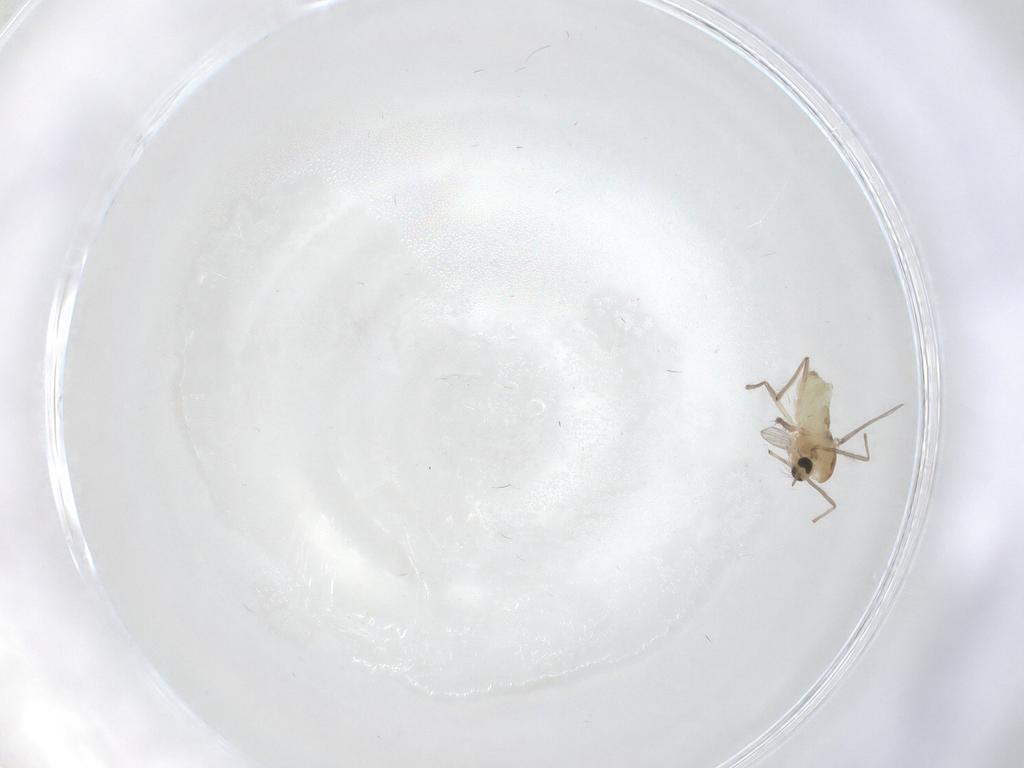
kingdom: Animalia
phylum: Arthropoda
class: Insecta
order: Diptera
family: Chironomidae
